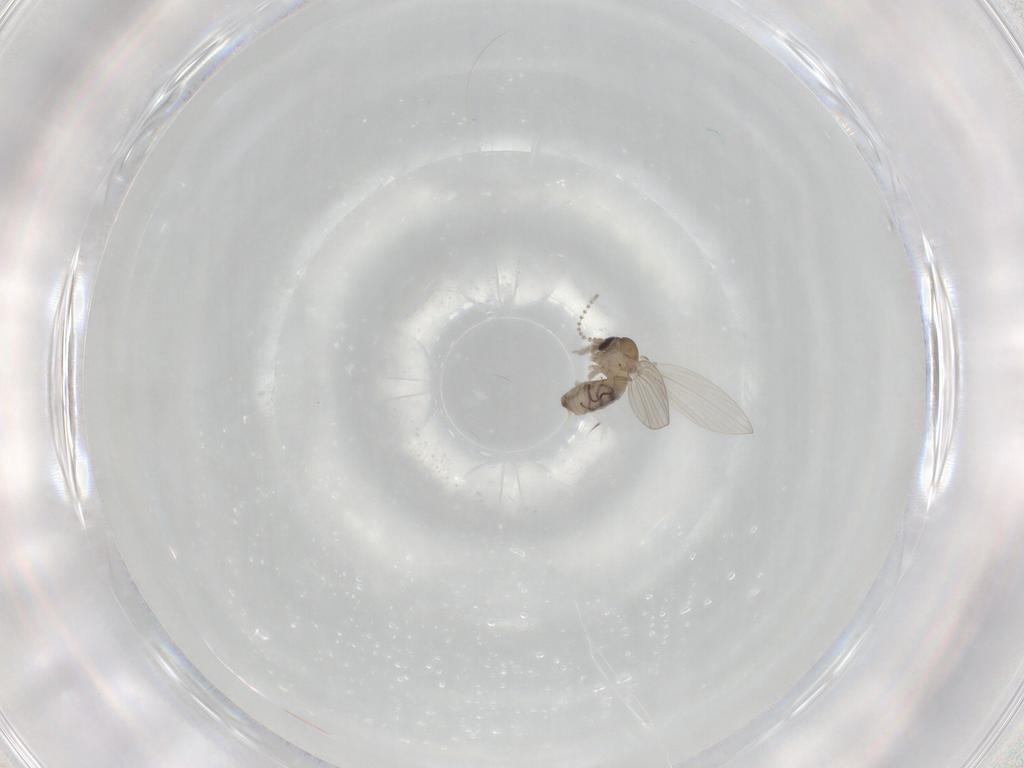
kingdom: Animalia
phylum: Arthropoda
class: Insecta
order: Diptera
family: Psychodidae
